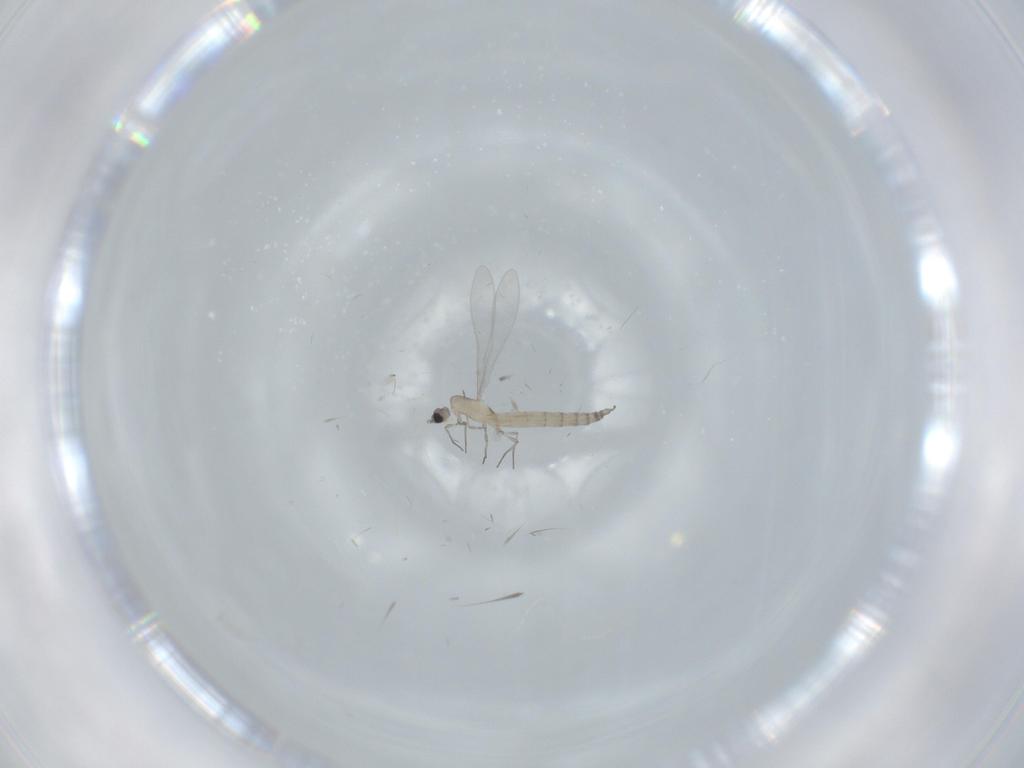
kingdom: Animalia
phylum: Arthropoda
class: Insecta
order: Diptera
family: Cecidomyiidae
